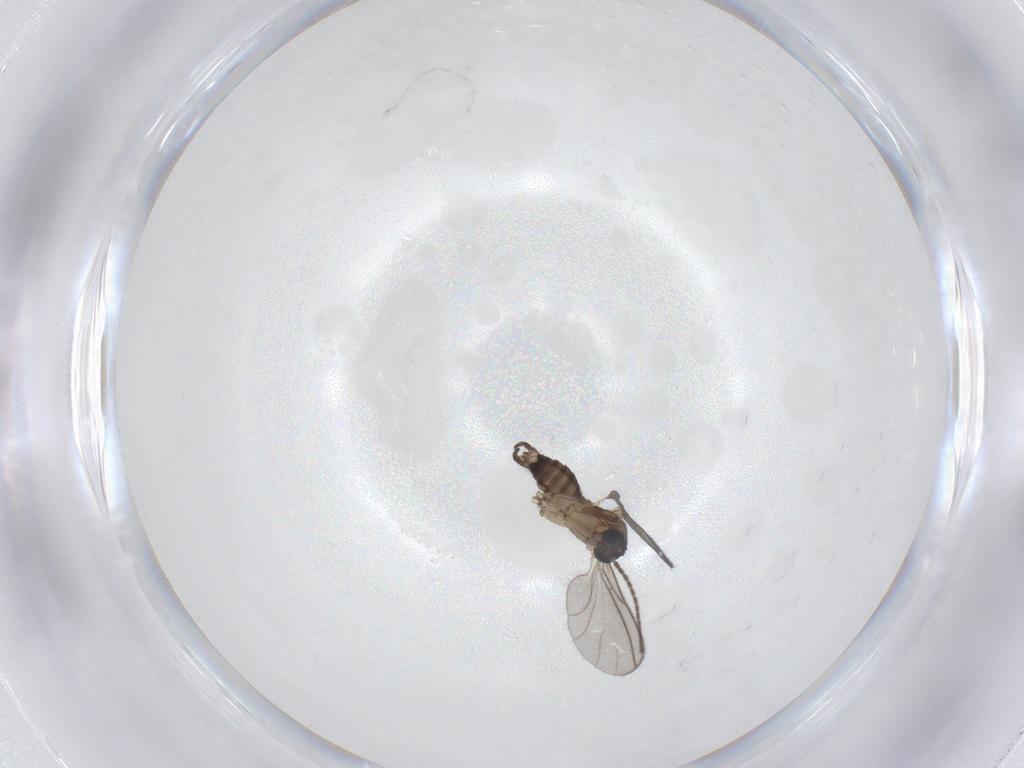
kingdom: Animalia
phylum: Arthropoda
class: Insecta
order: Diptera
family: Sciaridae
